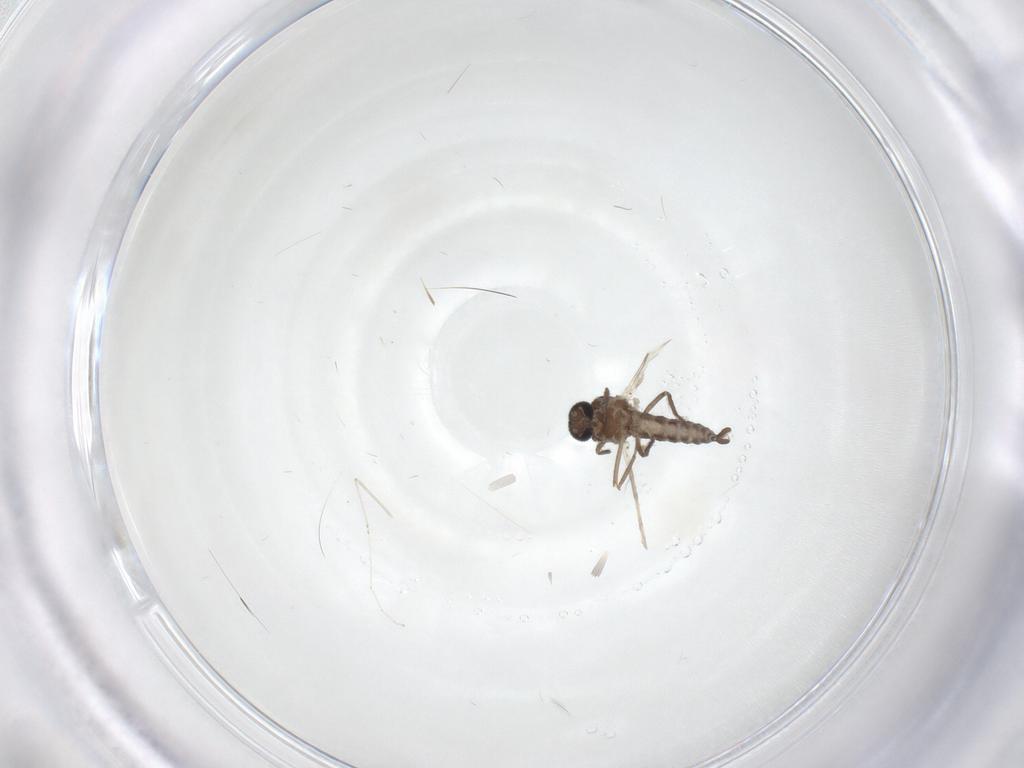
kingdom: Animalia
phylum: Arthropoda
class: Insecta
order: Diptera
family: Ceratopogonidae
